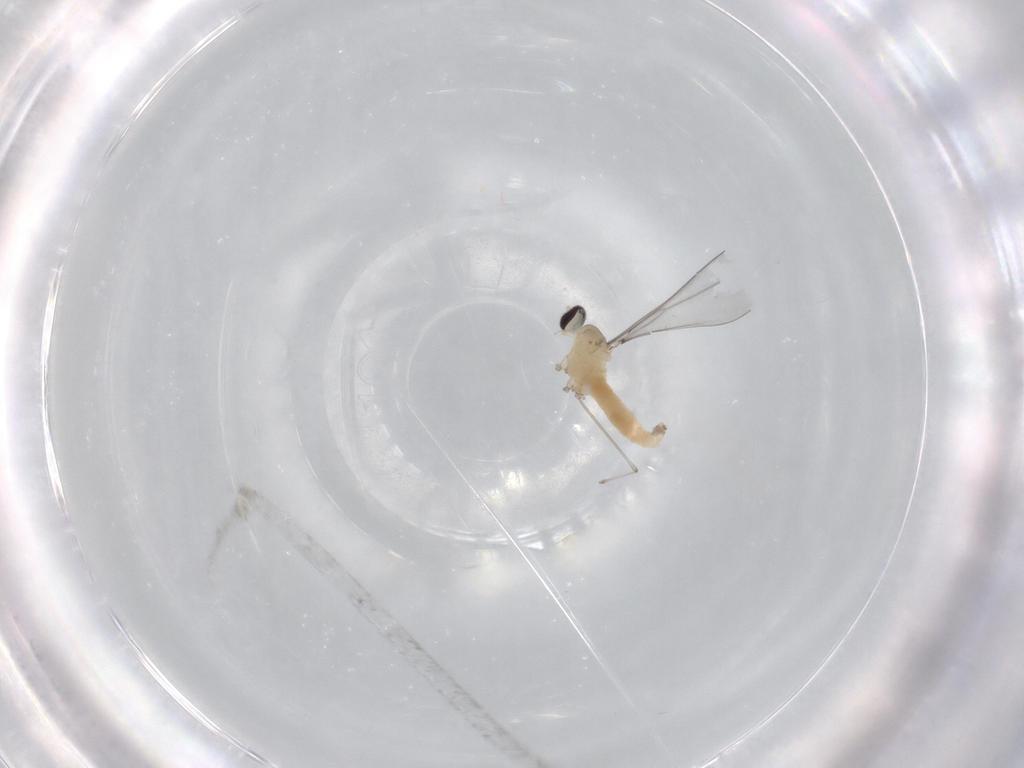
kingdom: Animalia
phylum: Arthropoda
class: Insecta
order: Diptera
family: Cecidomyiidae
